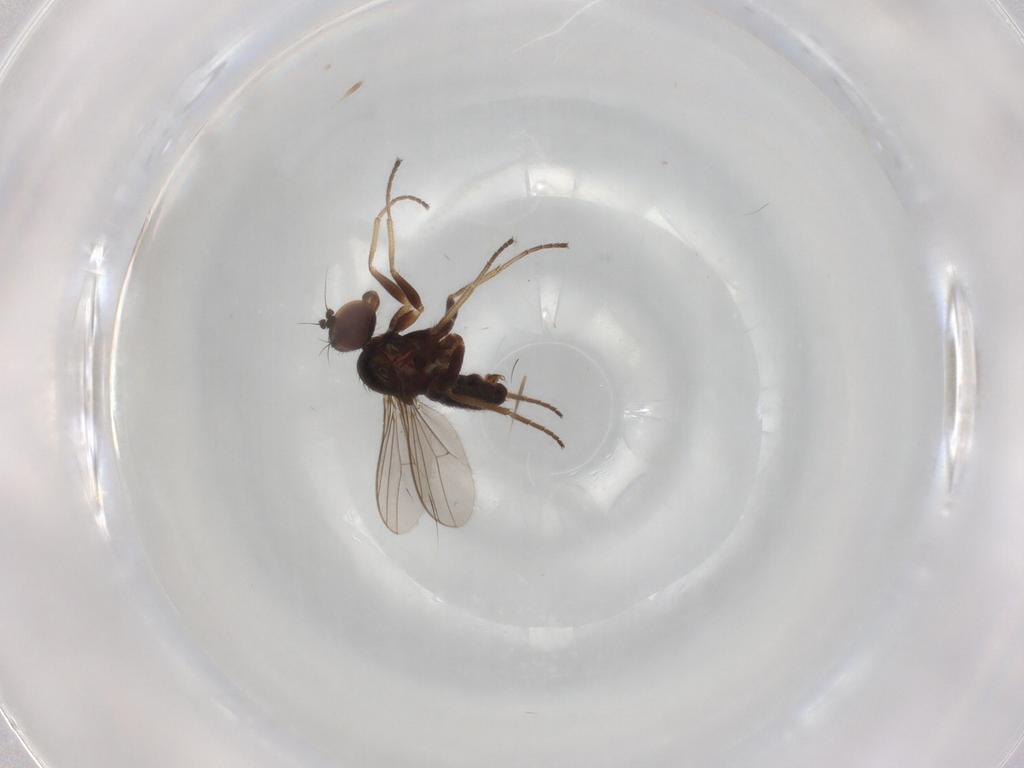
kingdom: Animalia
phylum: Arthropoda
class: Insecta
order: Diptera
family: Dolichopodidae
